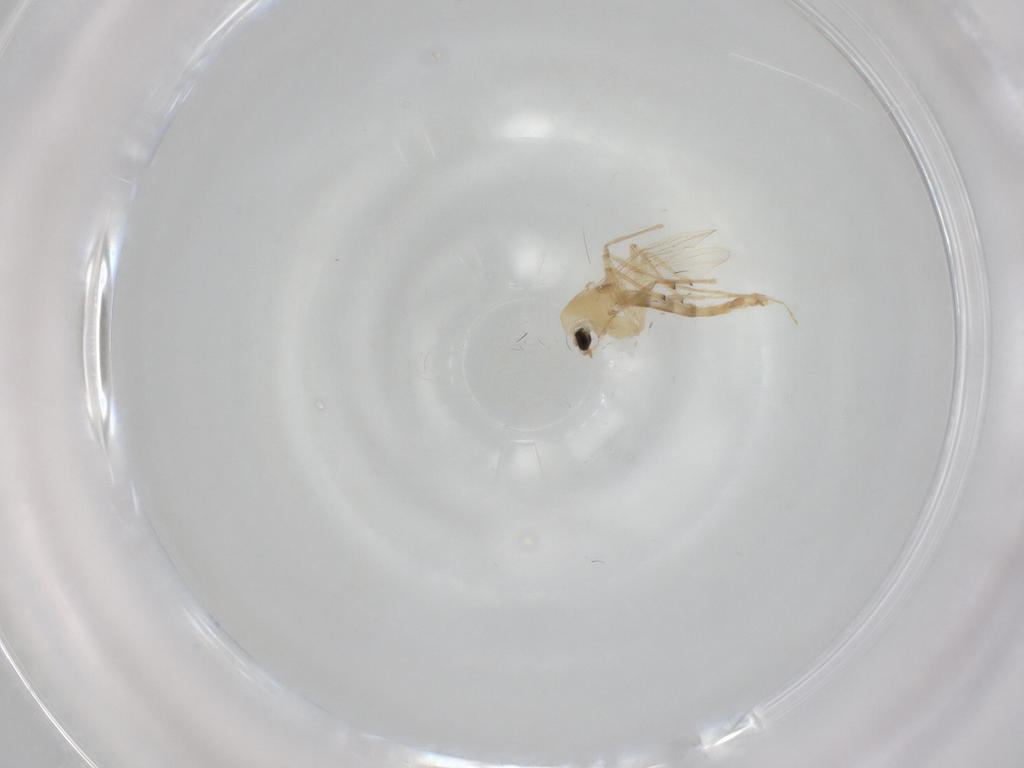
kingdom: Animalia
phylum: Arthropoda
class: Insecta
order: Diptera
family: Chironomidae
